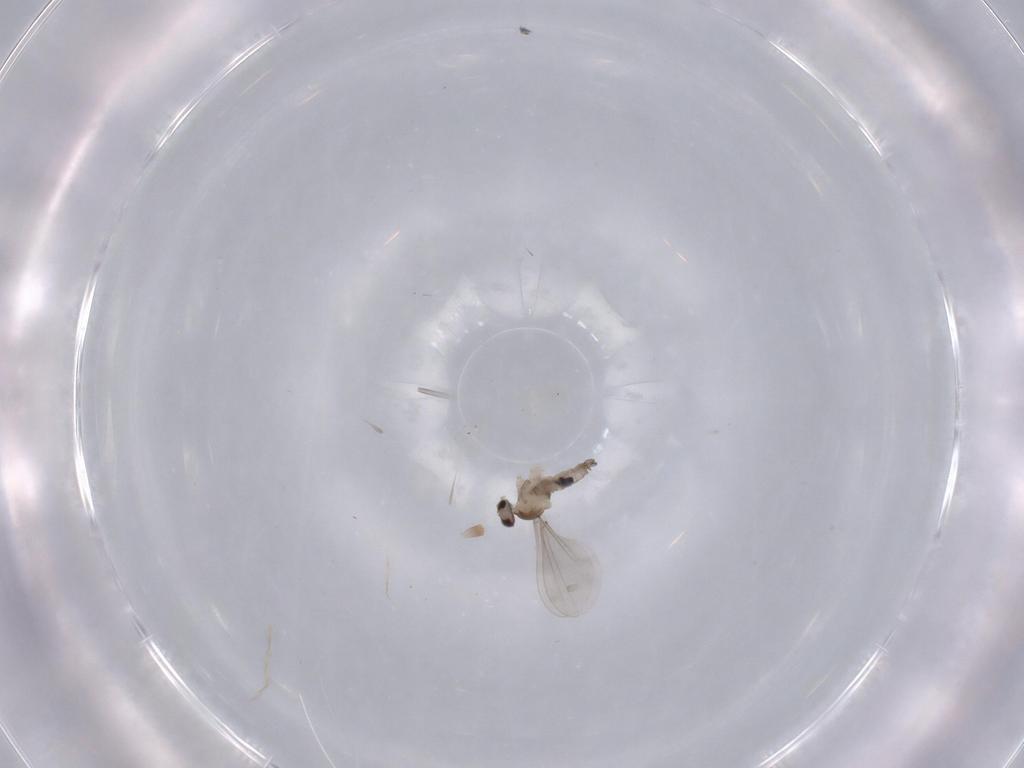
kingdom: Animalia
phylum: Arthropoda
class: Insecta
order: Diptera
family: Cecidomyiidae
